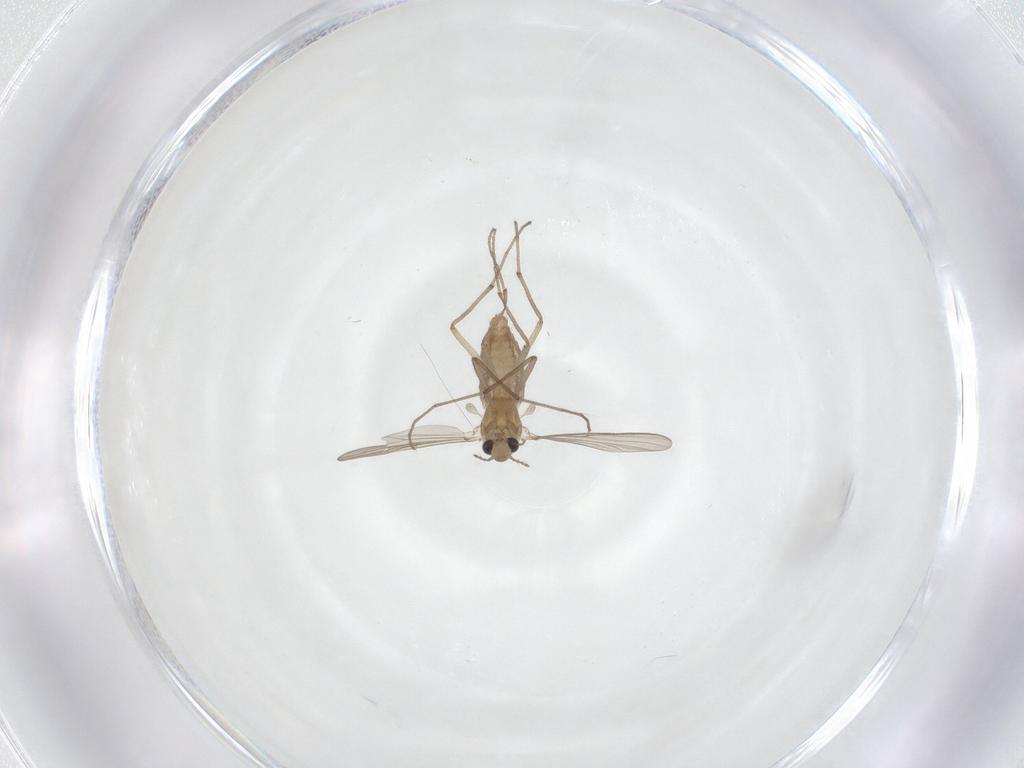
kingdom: Animalia
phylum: Arthropoda
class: Insecta
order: Diptera
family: Chironomidae
